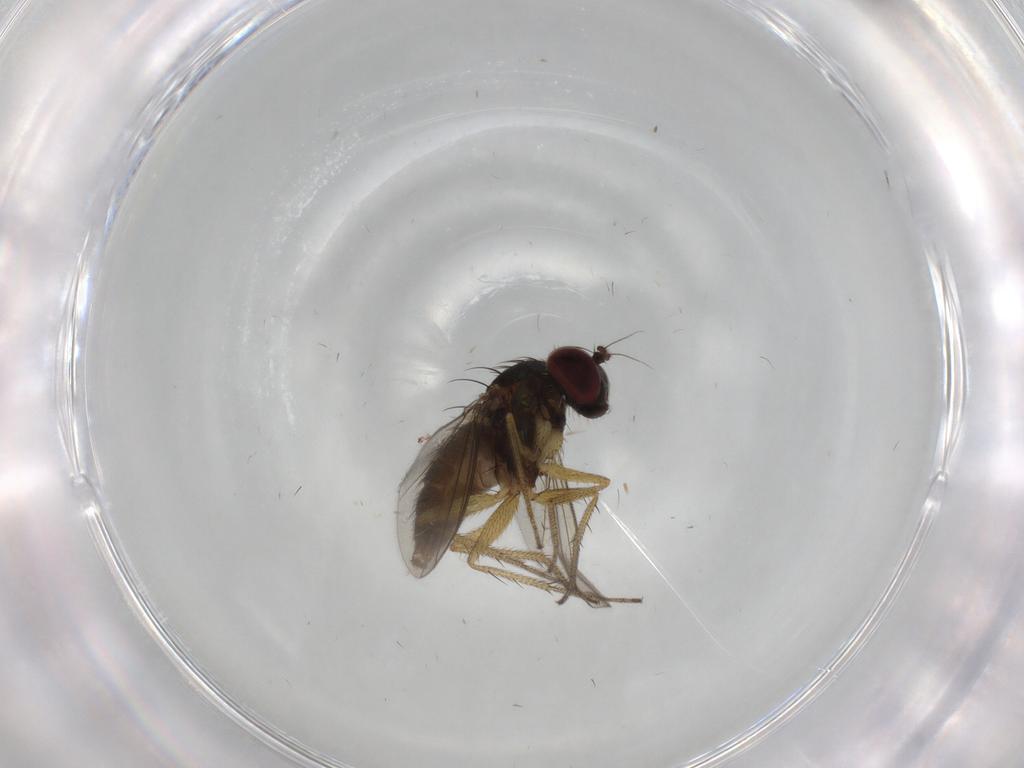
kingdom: Animalia
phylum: Arthropoda
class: Insecta
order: Diptera
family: Dolichopodidae
